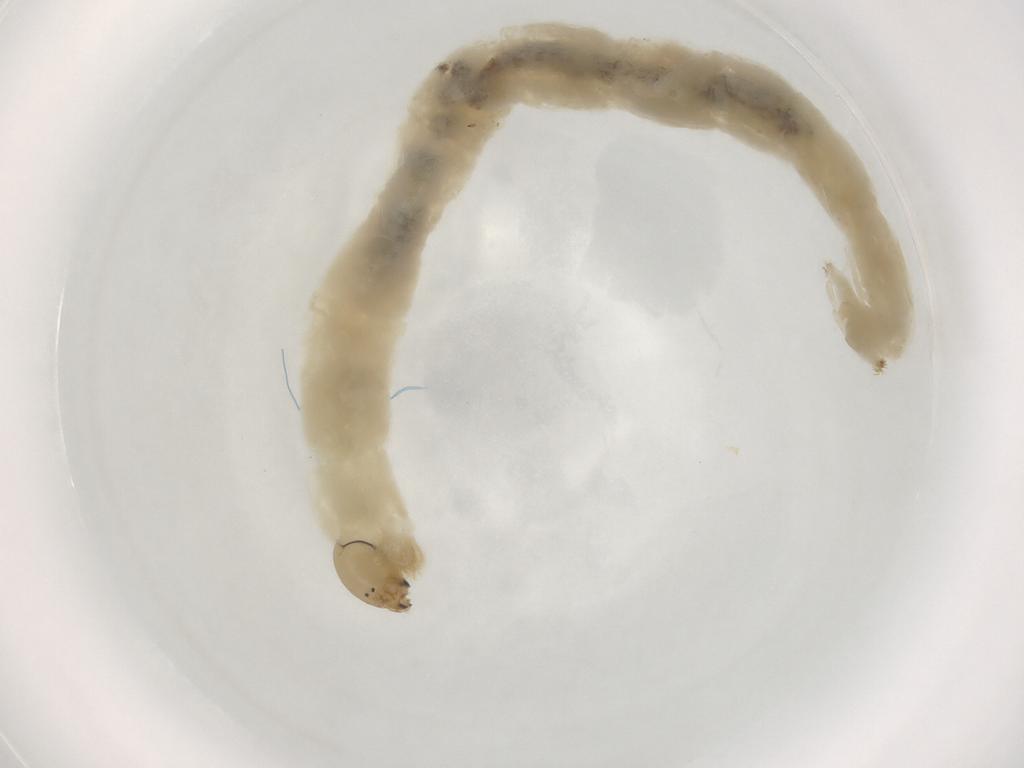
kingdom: Animalia
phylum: Arthropoda
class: Insecta
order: Diptera
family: Chironomidae
